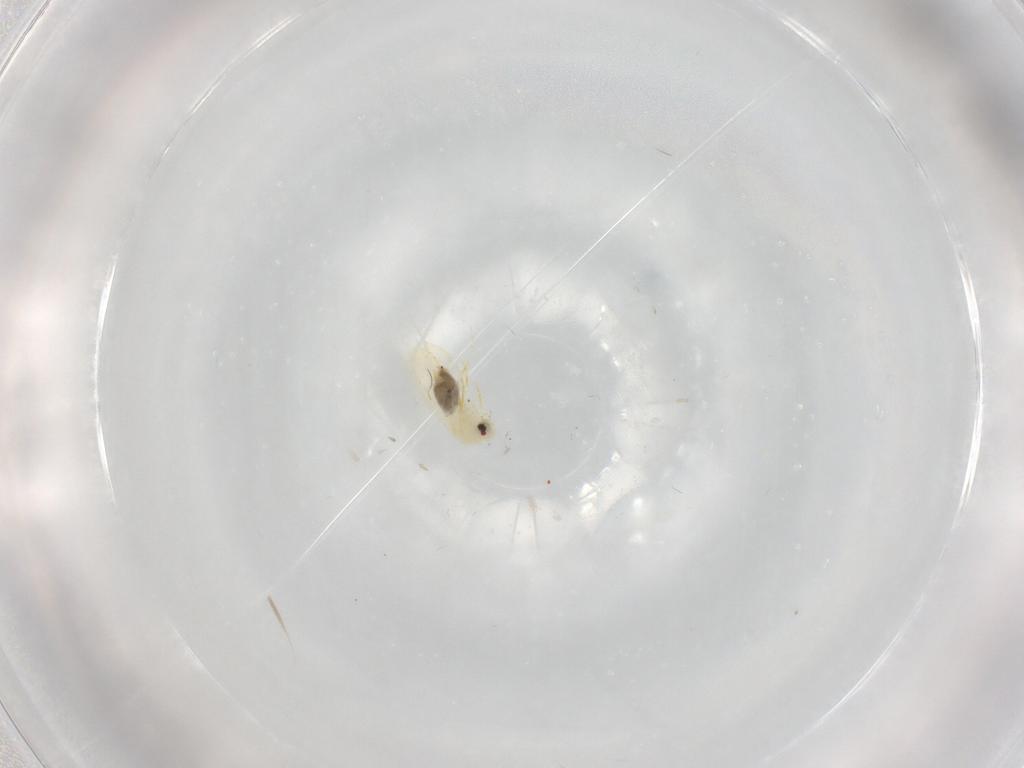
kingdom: Animalia
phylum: Arthropoda
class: Insecta
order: Hemiptera
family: Aleyrodidae
